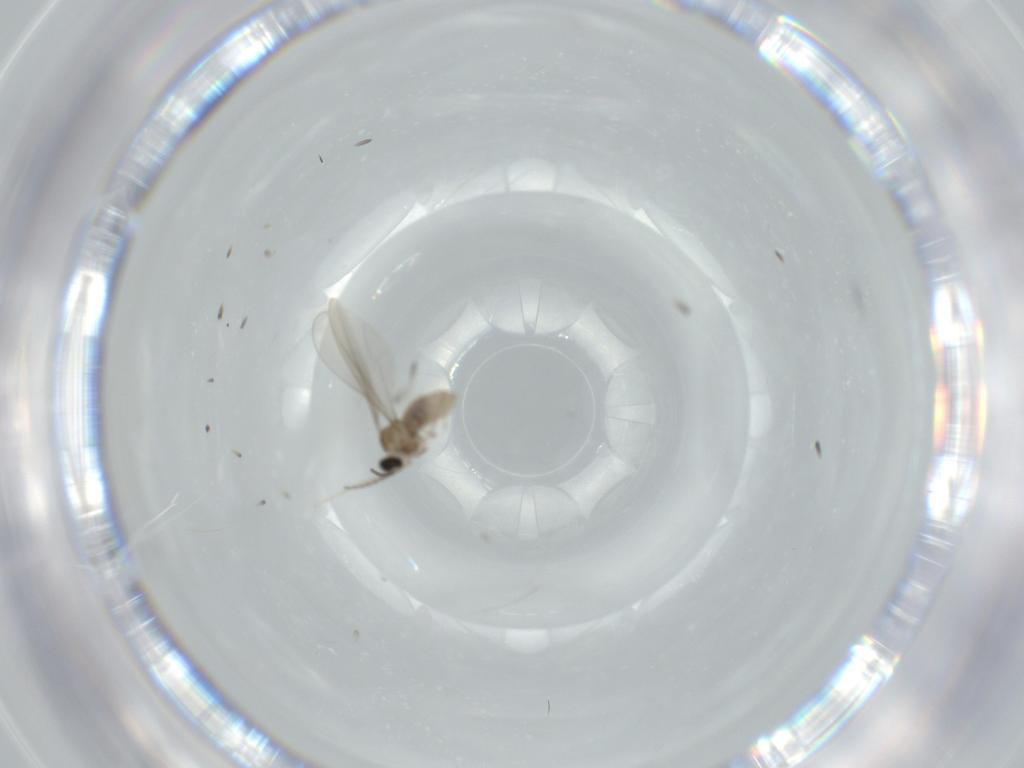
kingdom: Animalia
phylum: Arthropoda
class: Insecta
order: Diptera
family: Cecidomyiidae
